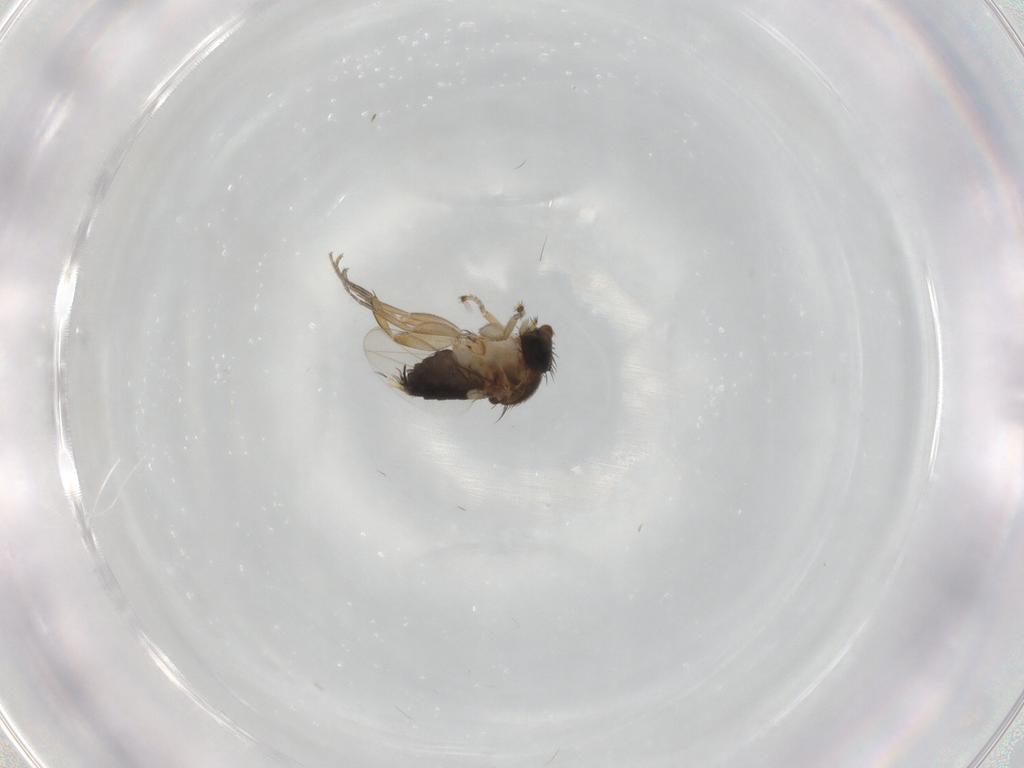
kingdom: Animalia
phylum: Arthropoda
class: Insecta
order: Diptera
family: Phoridae
